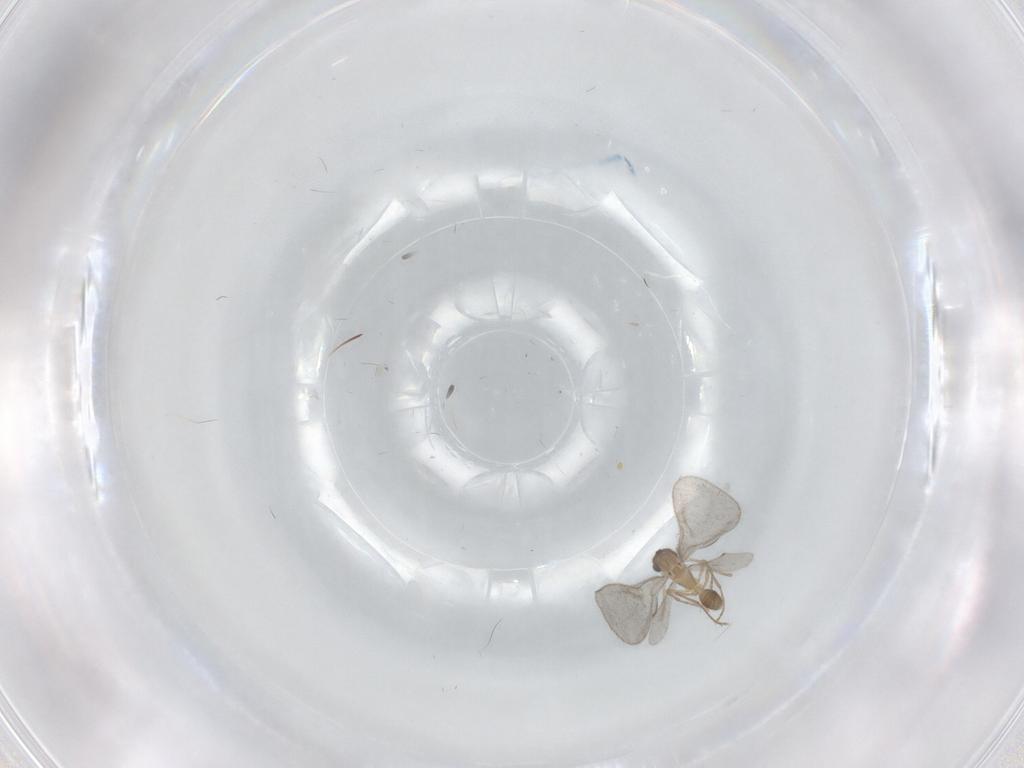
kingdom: Animalia
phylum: Arthropoda
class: Insecta
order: Hymenoptera
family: Formicidae
